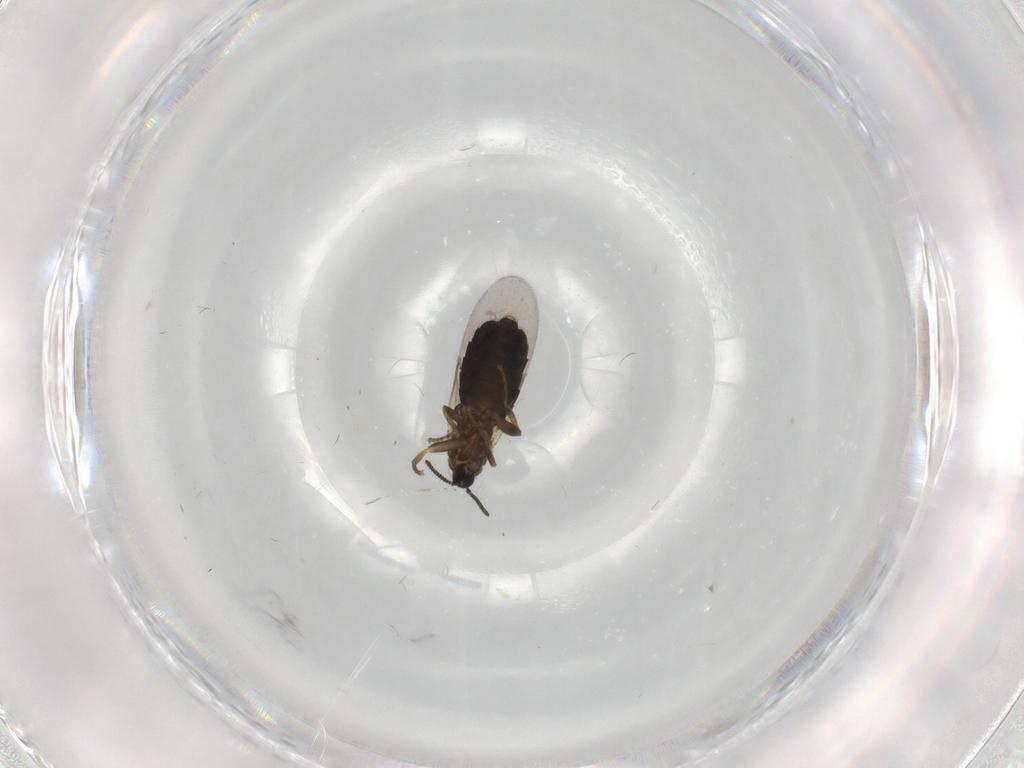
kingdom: Animalia
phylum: Arthropoda
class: Insecta
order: Diptera
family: Scatopsidae
